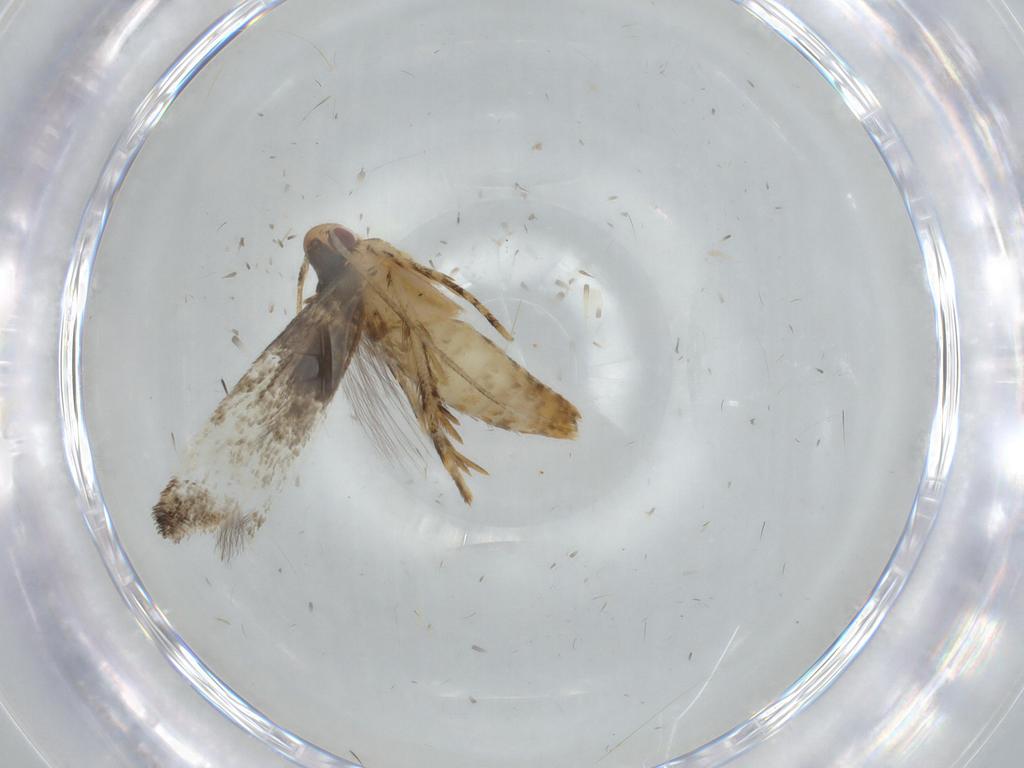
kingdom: Animalia
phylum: Arthropoda
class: Insecta
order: Lepidoptera
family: Momphidae
